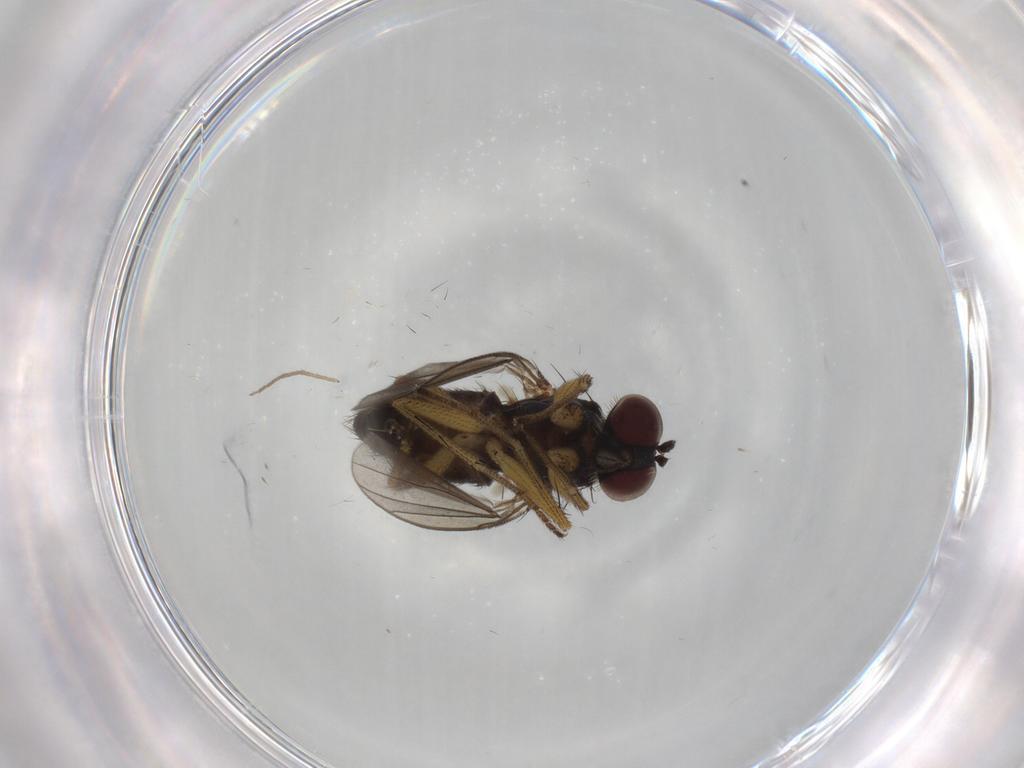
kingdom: Animalia
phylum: Arthropoda
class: Insecta
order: Diptera
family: Dolichopodidae
